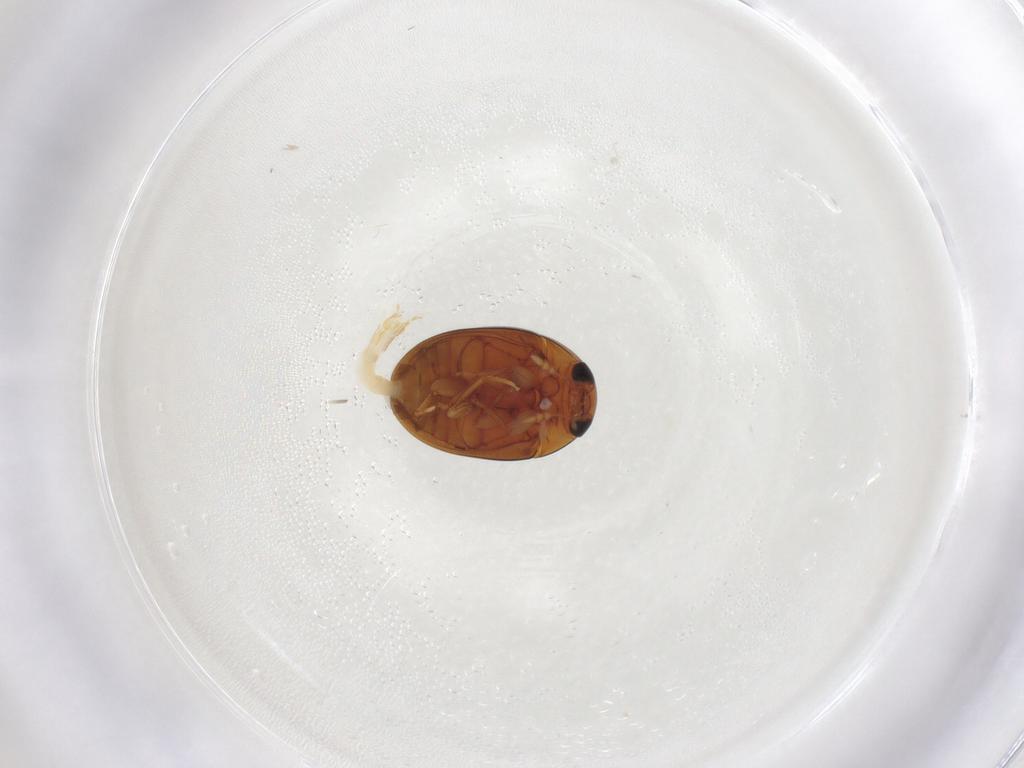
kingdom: Animalia
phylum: Arthropoda
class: Insecta
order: Coleoptera
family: Phalacridae
